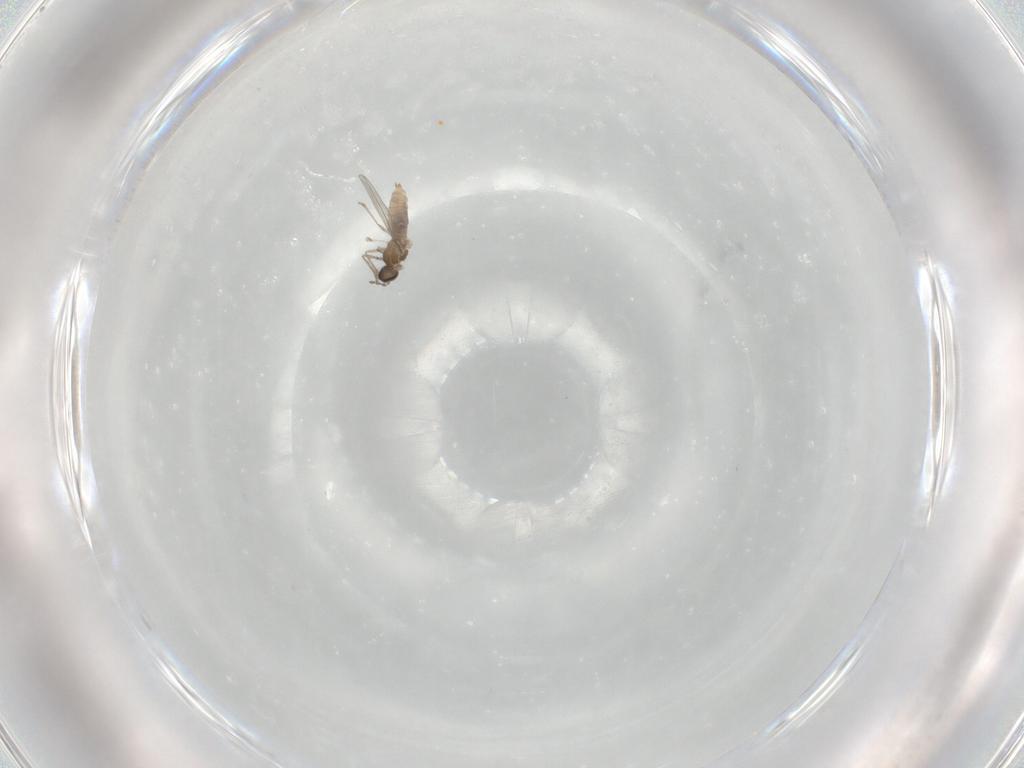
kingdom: Animalia
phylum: Arthropoda
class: Insecta
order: Diptera
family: Cecidomyiidae
